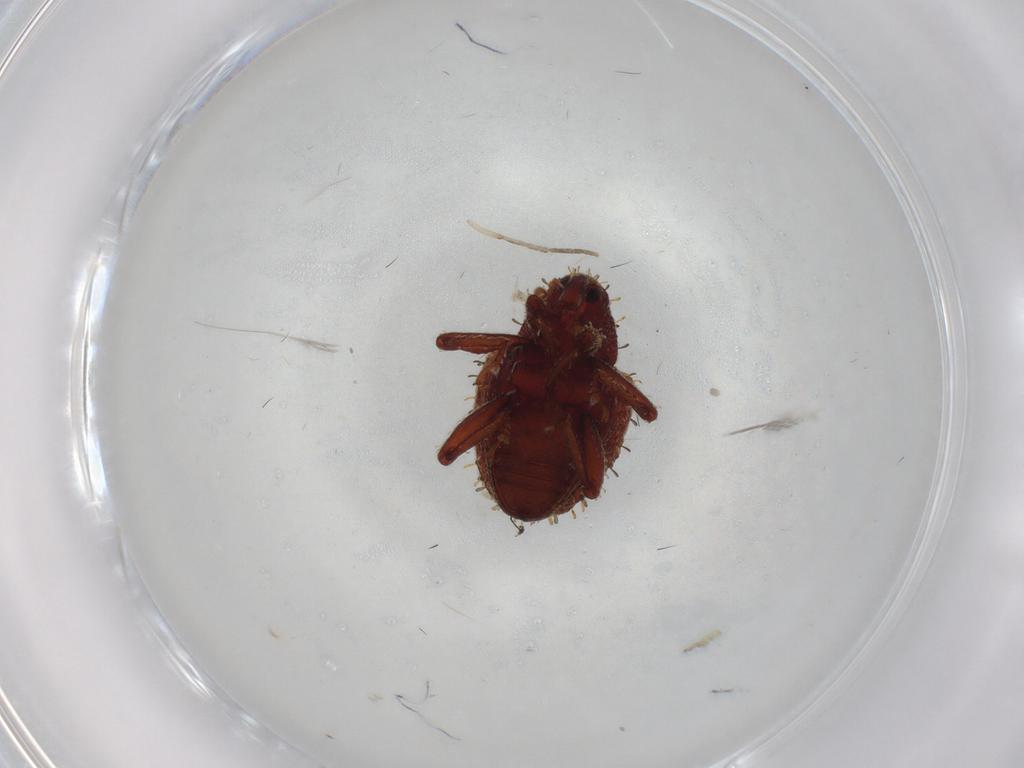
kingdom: Animalia
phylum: Arthropoda
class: Insecta
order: Coleoptera
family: Curculionidae
